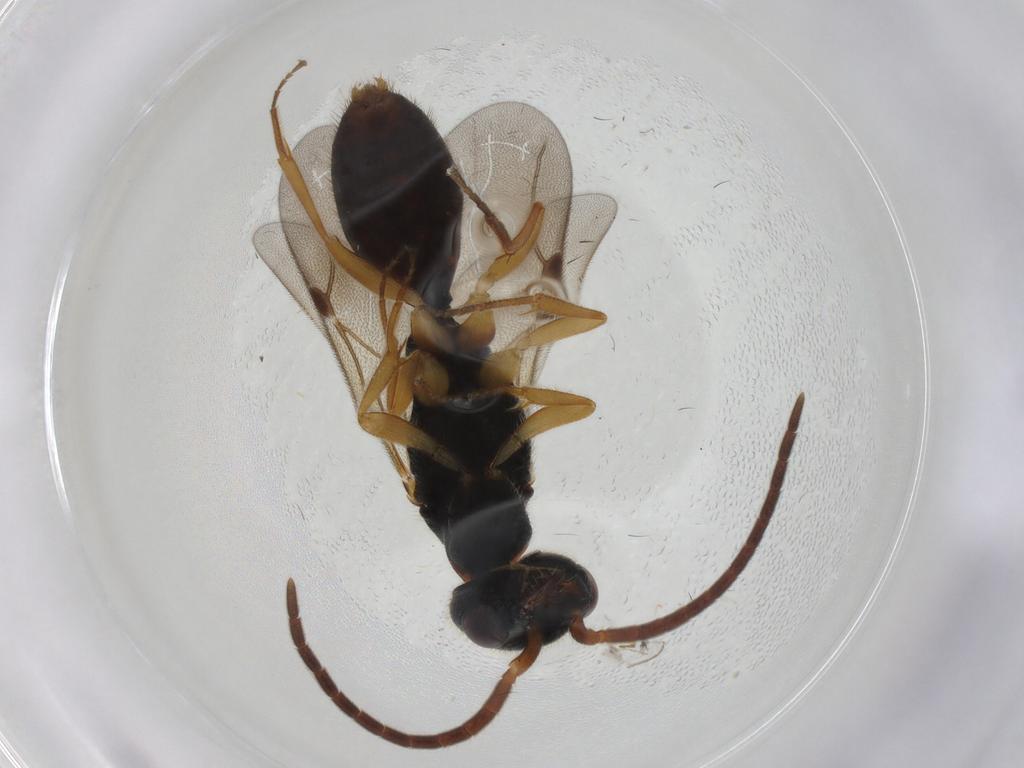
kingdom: Animalia
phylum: Arthropoda
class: Insecta
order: Hymenoptera
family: Bethylidae
